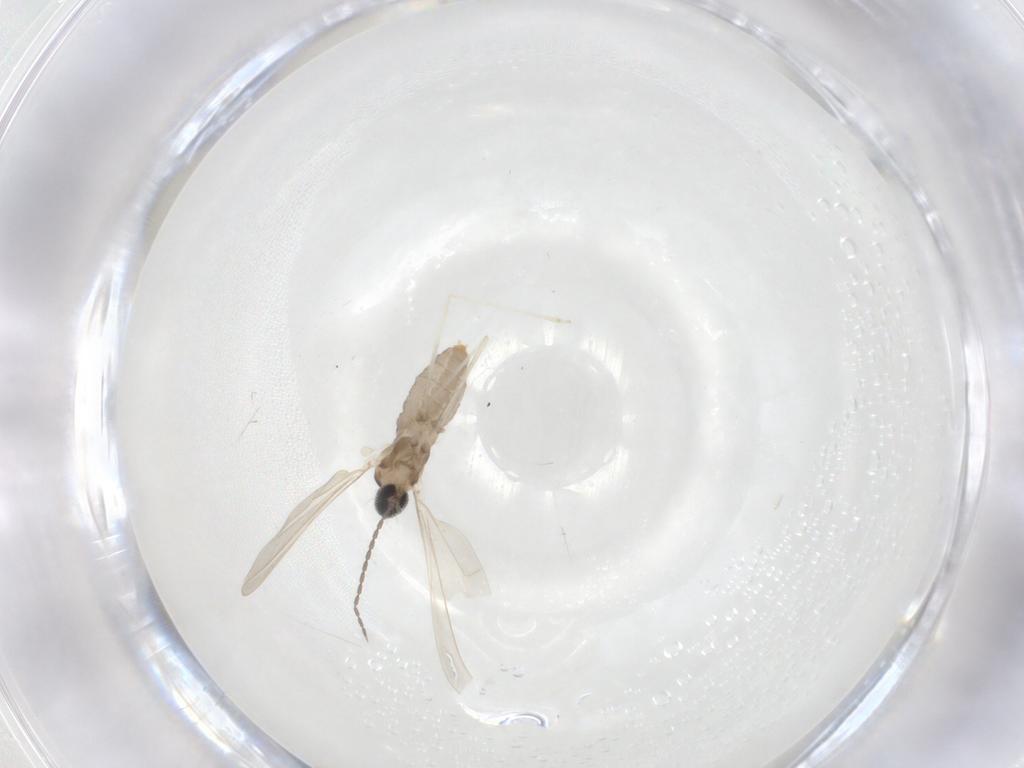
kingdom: Animalia
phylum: Arthropoda
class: Insecta
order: Diptera
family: Cecidomyiidae
